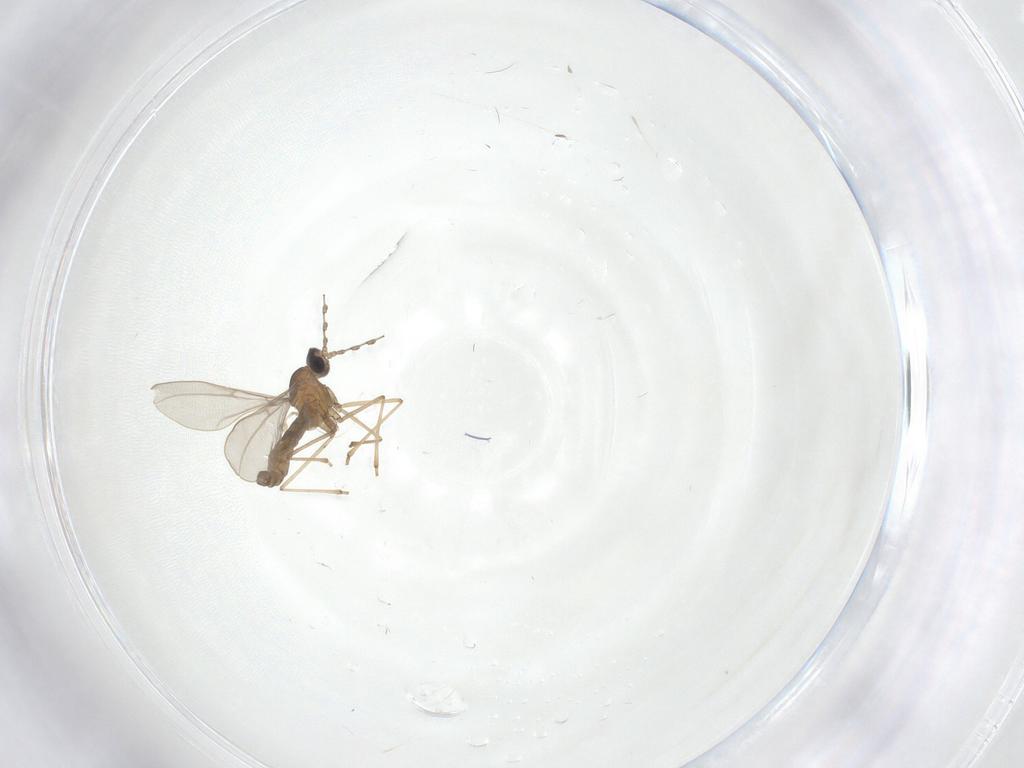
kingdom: Animalia
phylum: Arthropoda
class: Insecta
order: Diptera
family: Cecidomyiidae
